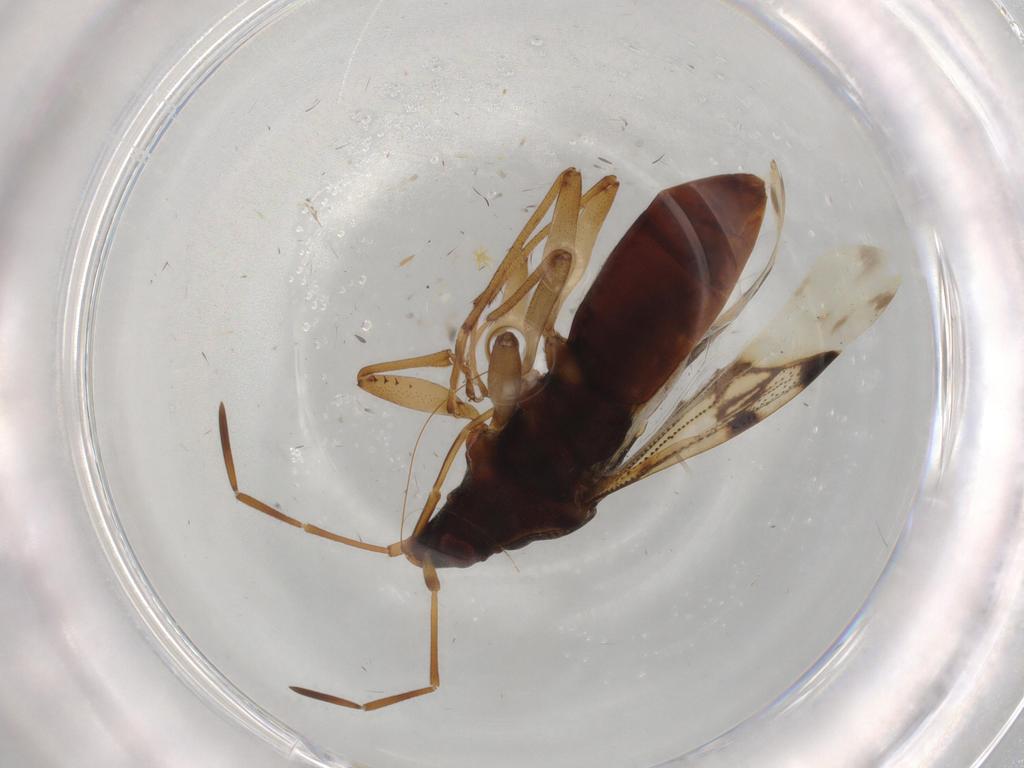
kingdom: Animalia
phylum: Arthropoda
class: Insecta
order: Hemiptera
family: Rhyparochromidae
